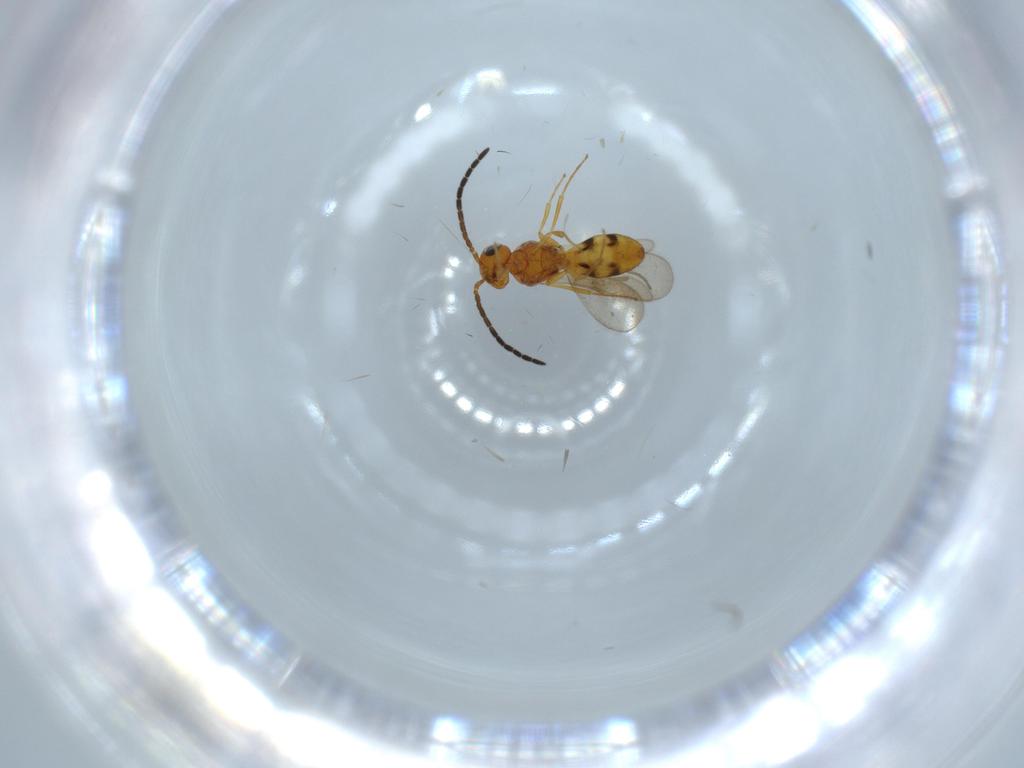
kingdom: Animalia
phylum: Arthropoda
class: Insecta
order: Hymenoptera
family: Scelionidae
